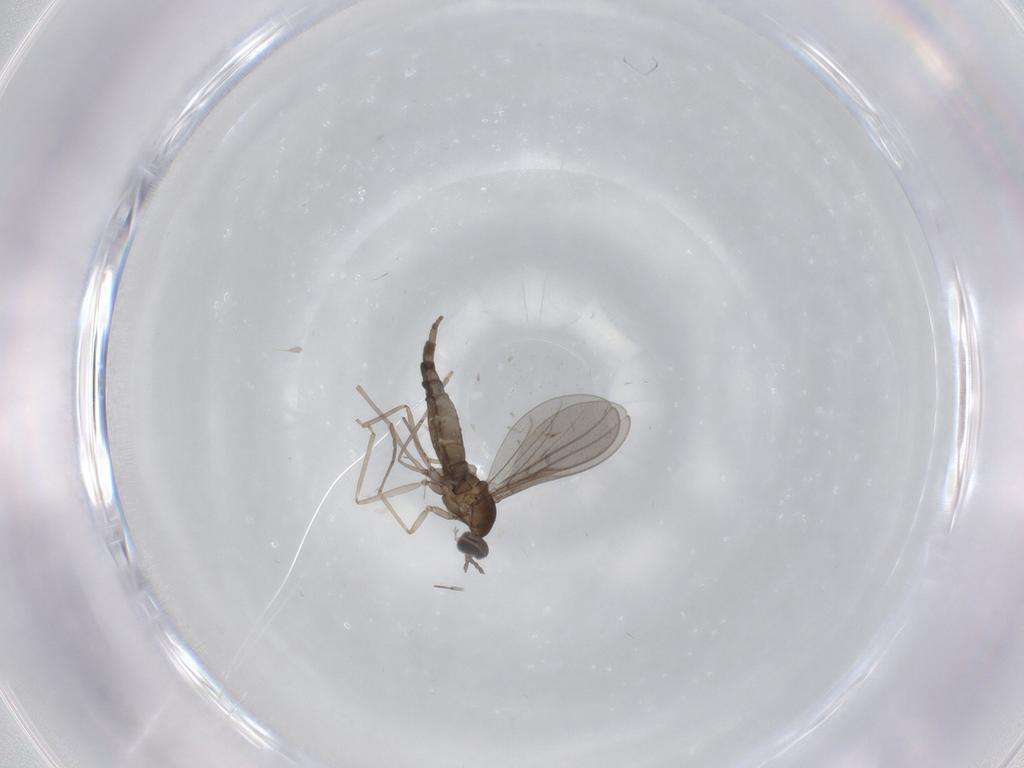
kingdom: Animalia
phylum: Arthropoda
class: Insecta
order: Diptera
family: Cecidomyiidae
